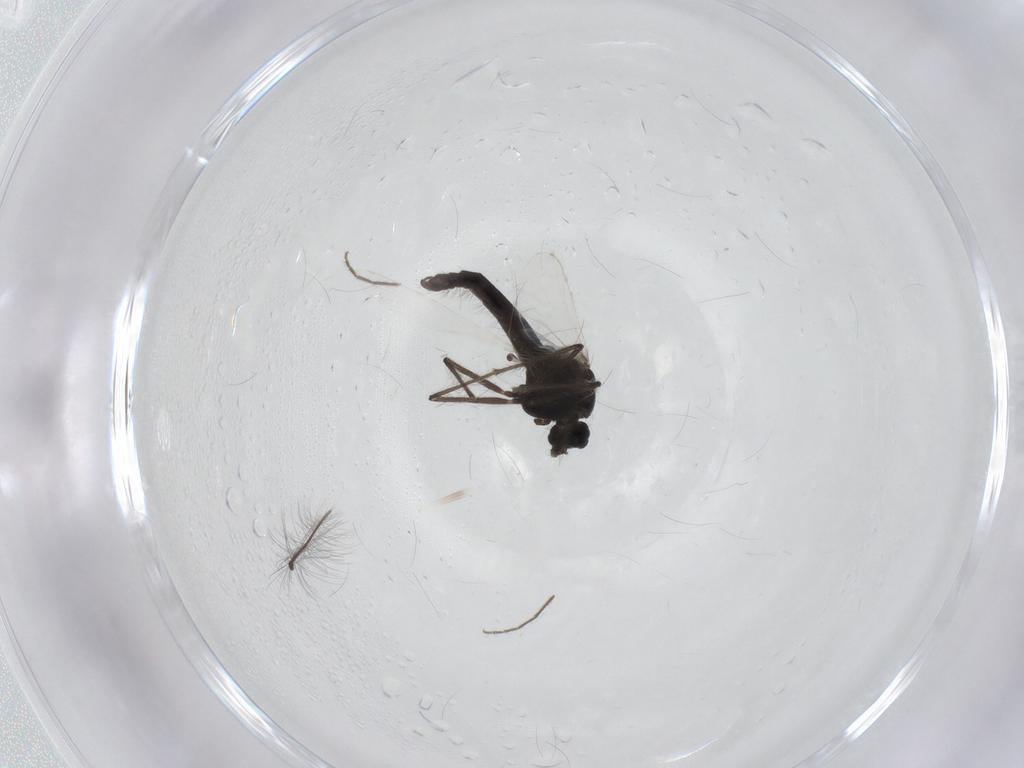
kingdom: Animalia
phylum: Arthropoda
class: Insecta
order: Diptera
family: Chironomidae
